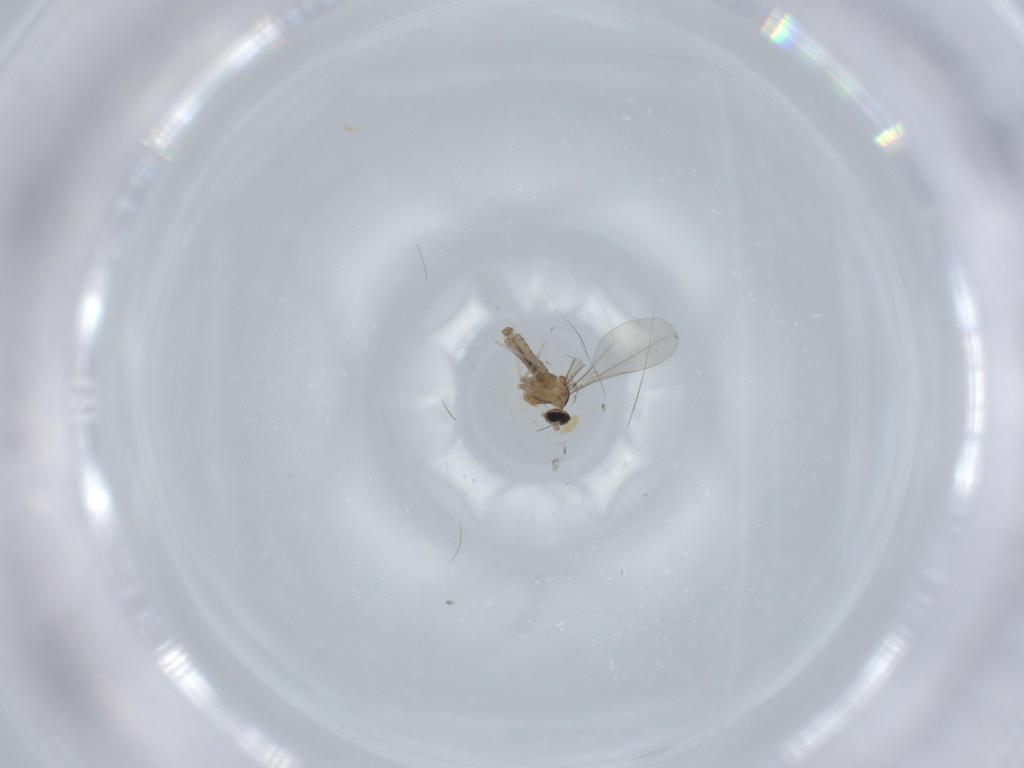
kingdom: Animalia
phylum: Arthropoda
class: Insecta
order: Diptera
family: Cecidomyiidae
